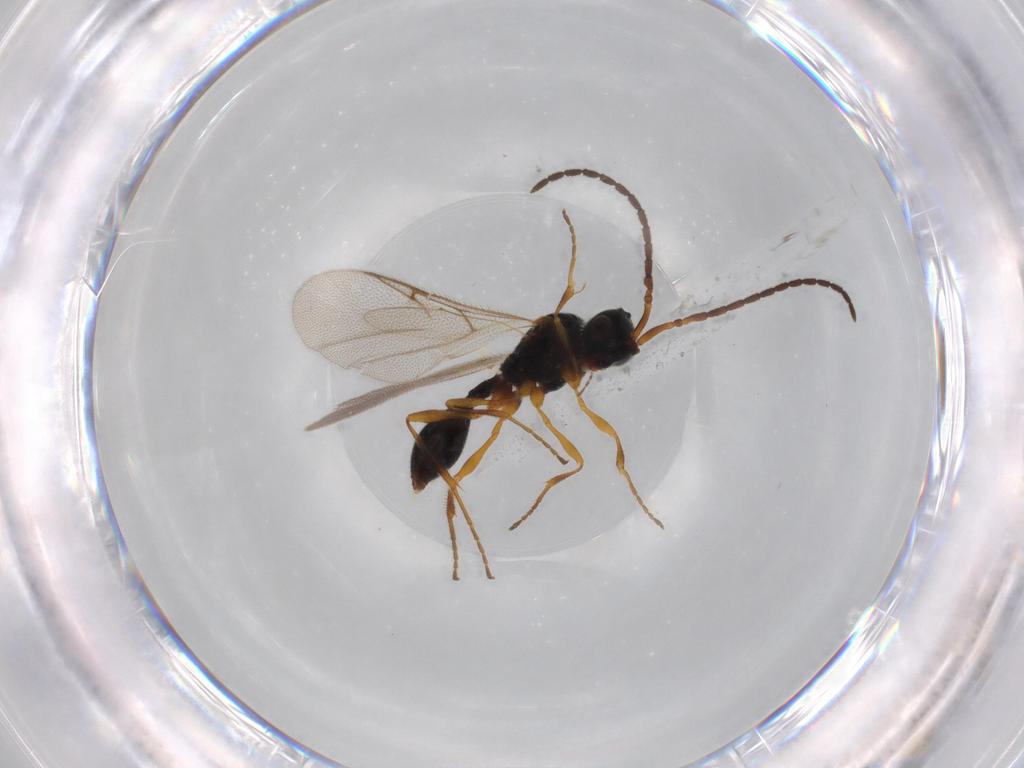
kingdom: Animalia
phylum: Arthropoda
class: Insecta
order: Hymenoptera
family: Diapriidae
